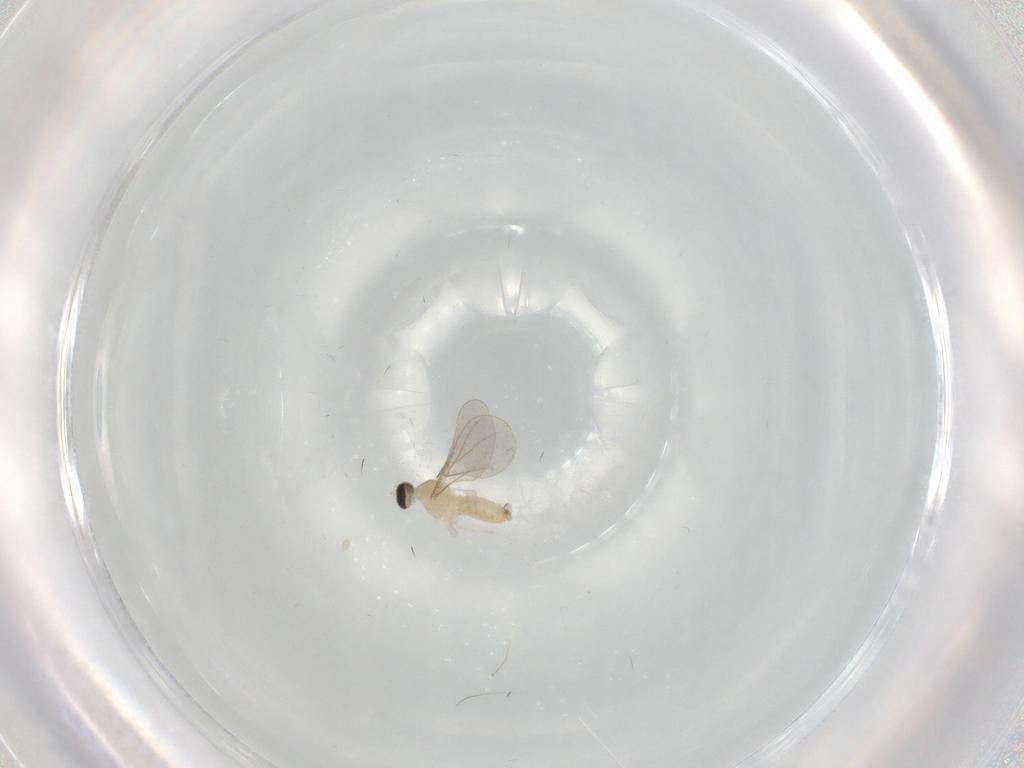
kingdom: Animalia
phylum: Arthropoda
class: Insecta
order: Diptera
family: Cecidomyiidae
